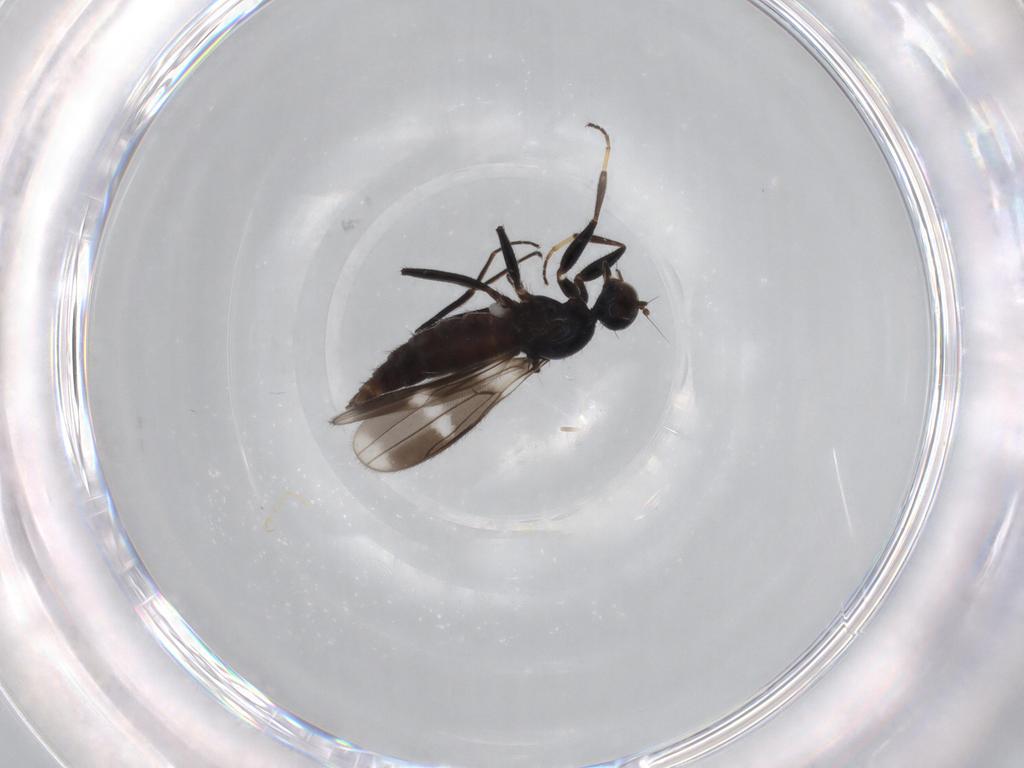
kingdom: Animalia
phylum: Arthropoda
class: Insecta
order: Diptera
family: Hybotidae
